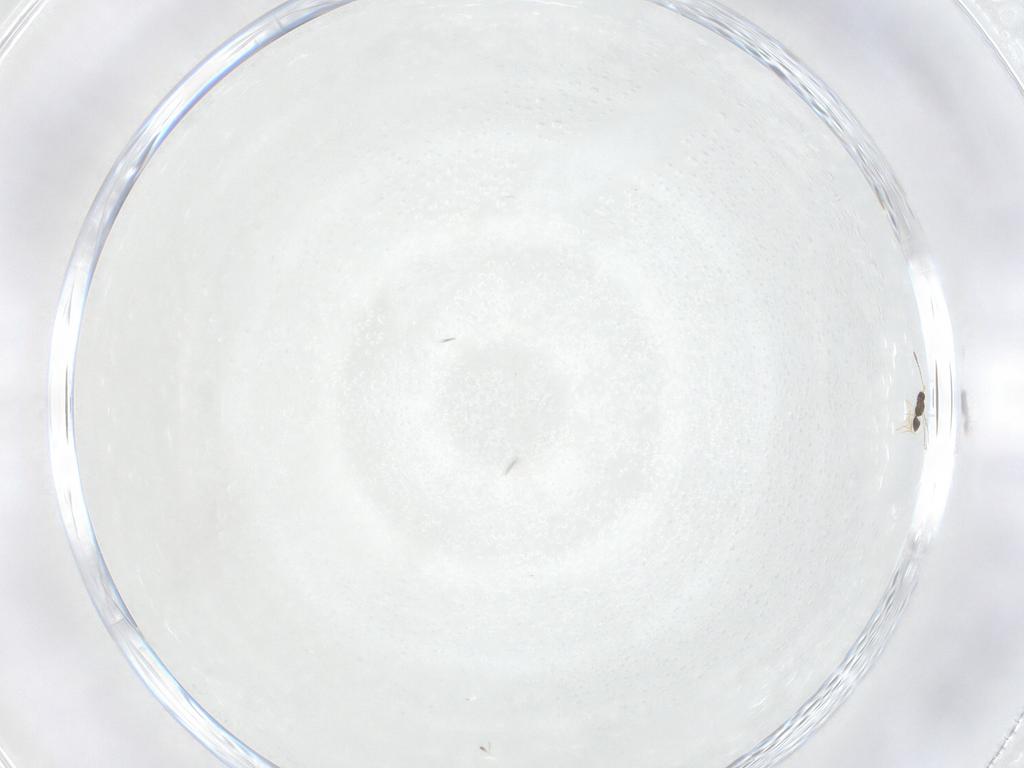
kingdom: Animalia
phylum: Arthropoda
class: Insecta
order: Hymenoptera
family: Mymaridae
